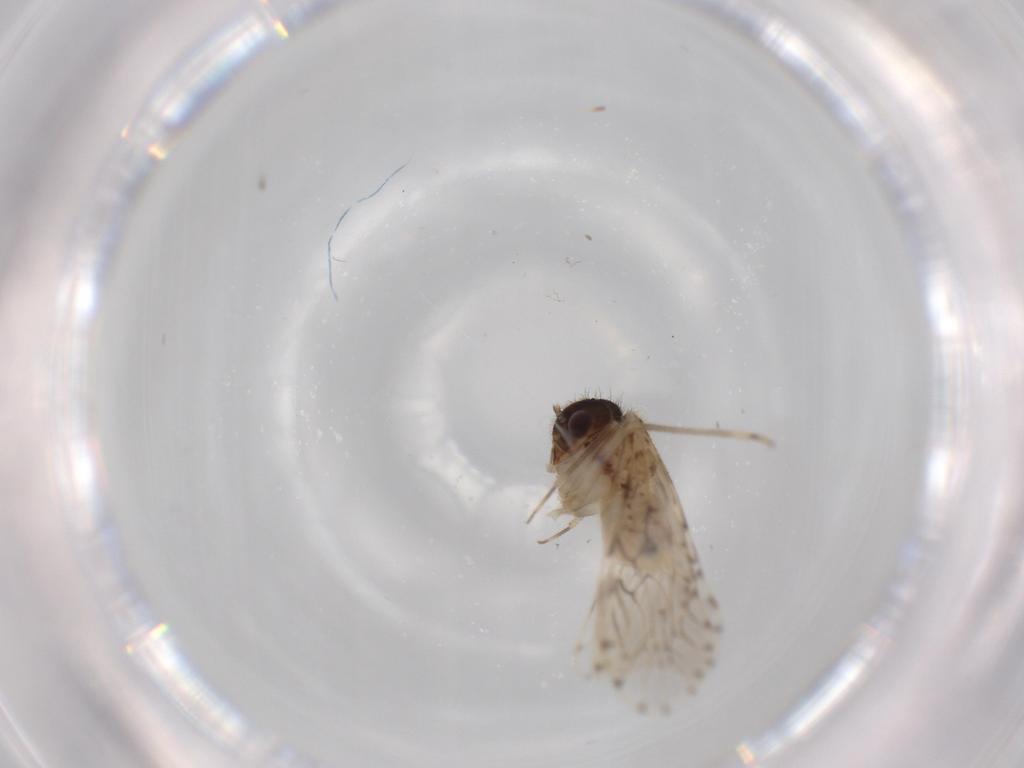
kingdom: Animalia
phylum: Arthropoda
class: Insecta
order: Psocodea
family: Epipsocidae
